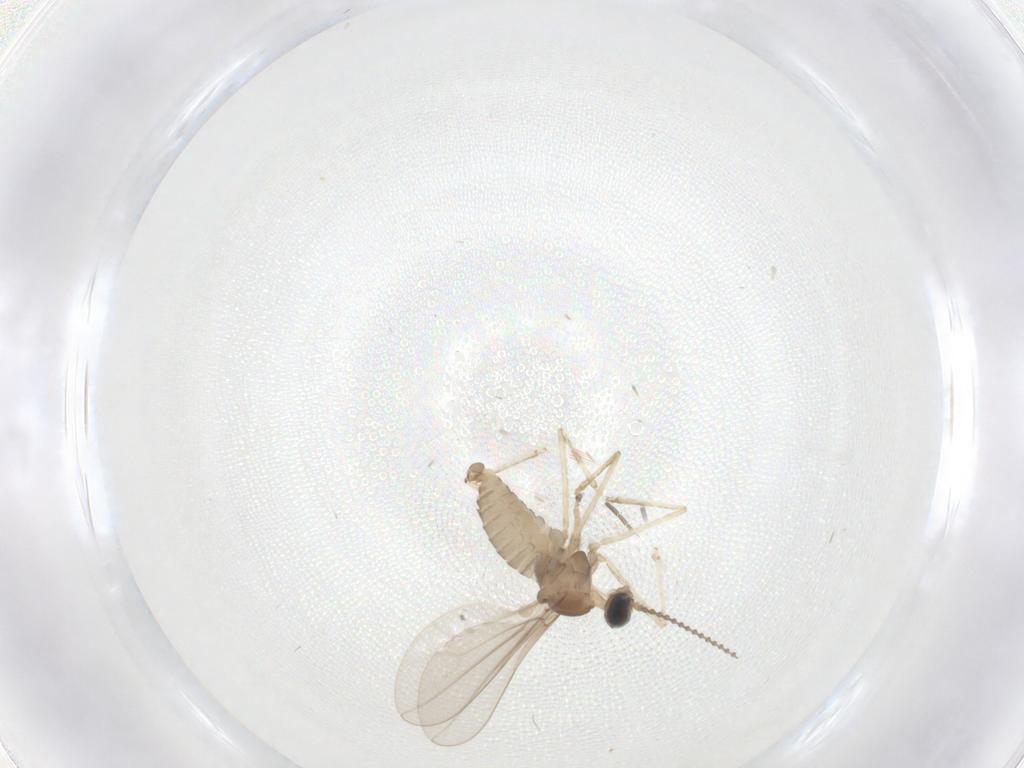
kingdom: Animalia
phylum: Arthropoda
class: Insecta
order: Diptera
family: Cecidomyiidae
